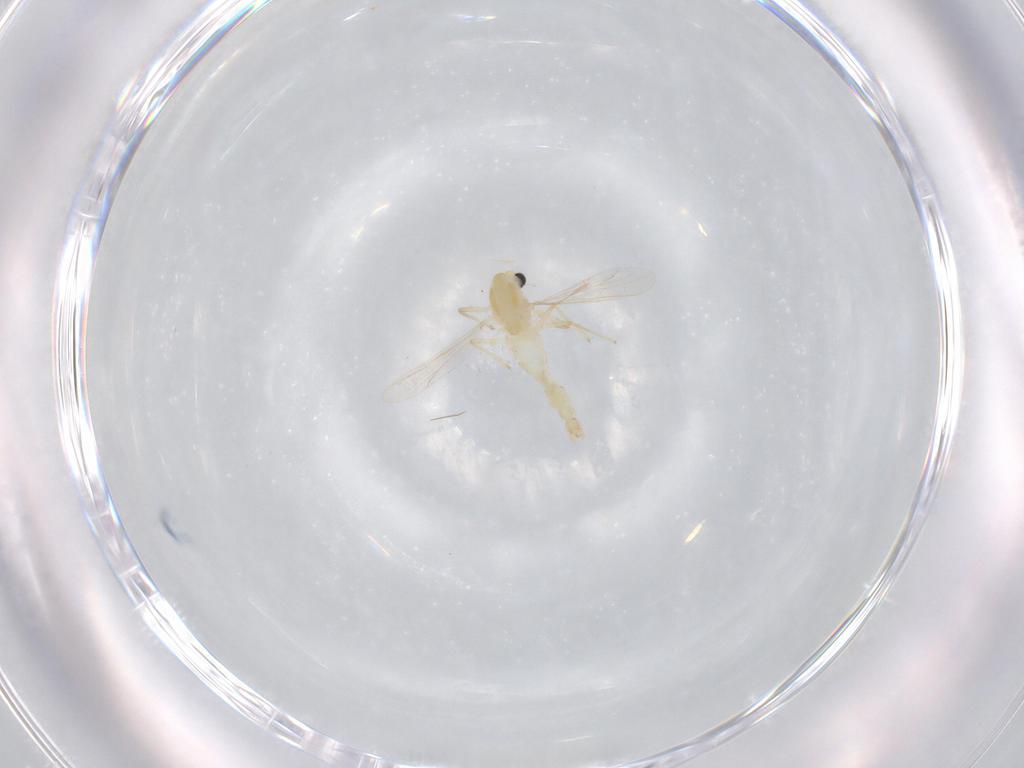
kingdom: Animalia
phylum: Arthropoda
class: Insecta
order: Diptera
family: Chironomidae
